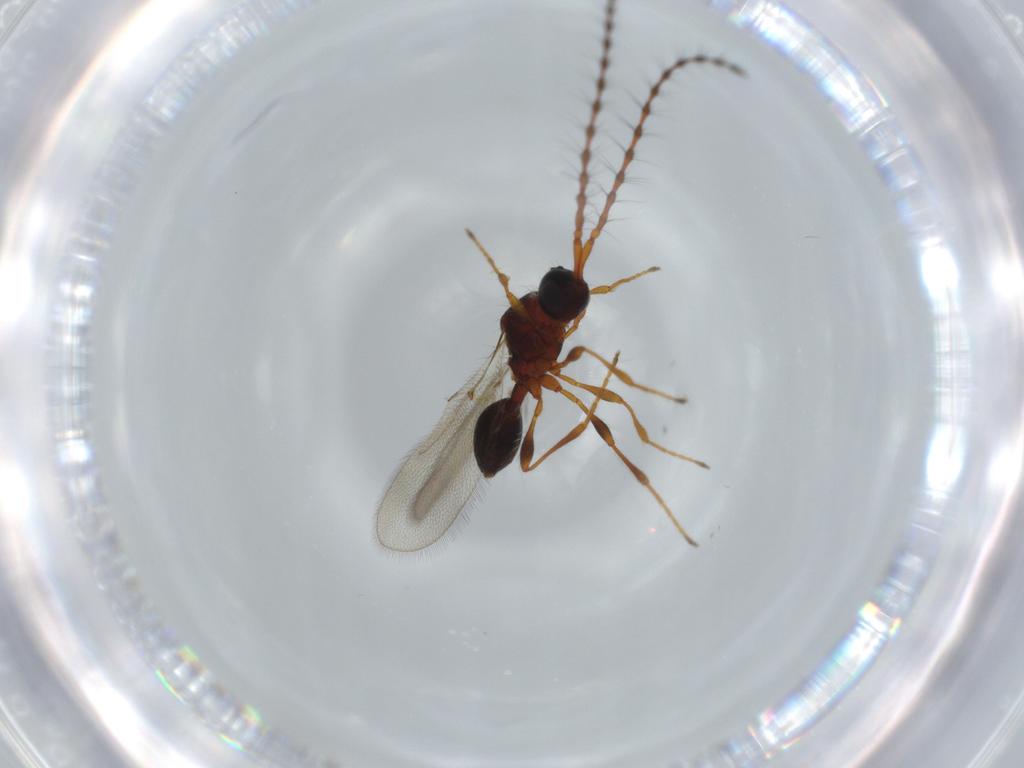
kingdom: Animalia
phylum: Arthropoda
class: Insecta
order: Hymenoptera
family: Diapriidae
